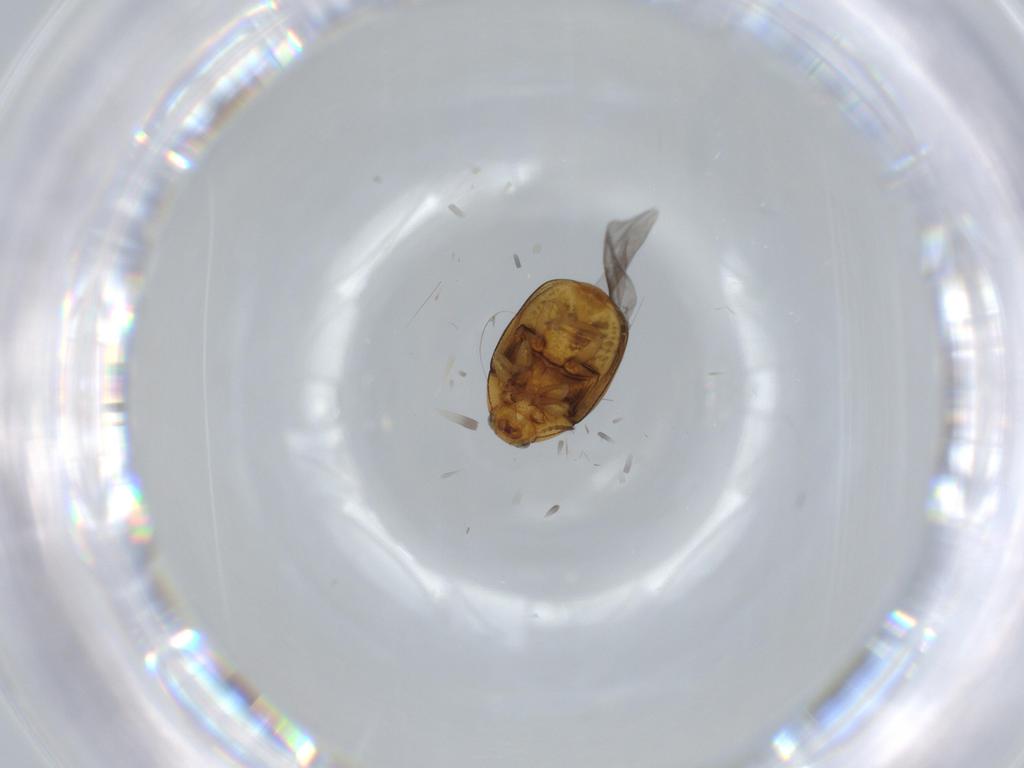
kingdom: Animalia
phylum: Arthropoda
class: Insecta
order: Coleoptera
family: Chrysomelidae
